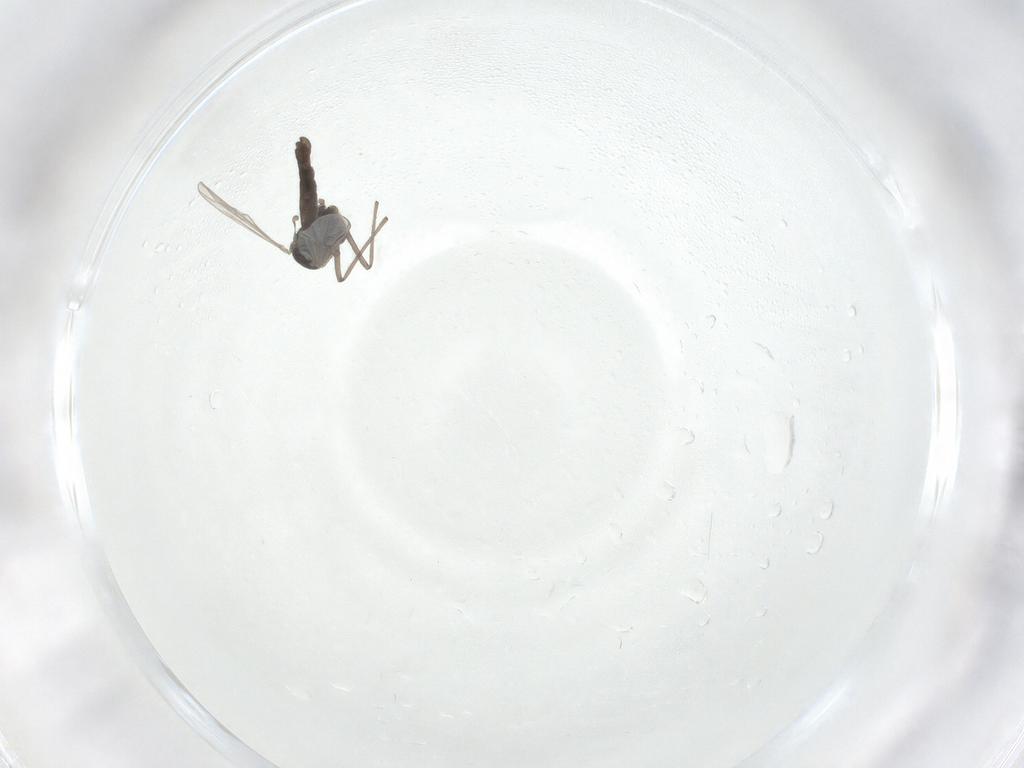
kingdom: Animalia
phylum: Arthropoda
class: Insecta
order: Diptera
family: Chironomidae
